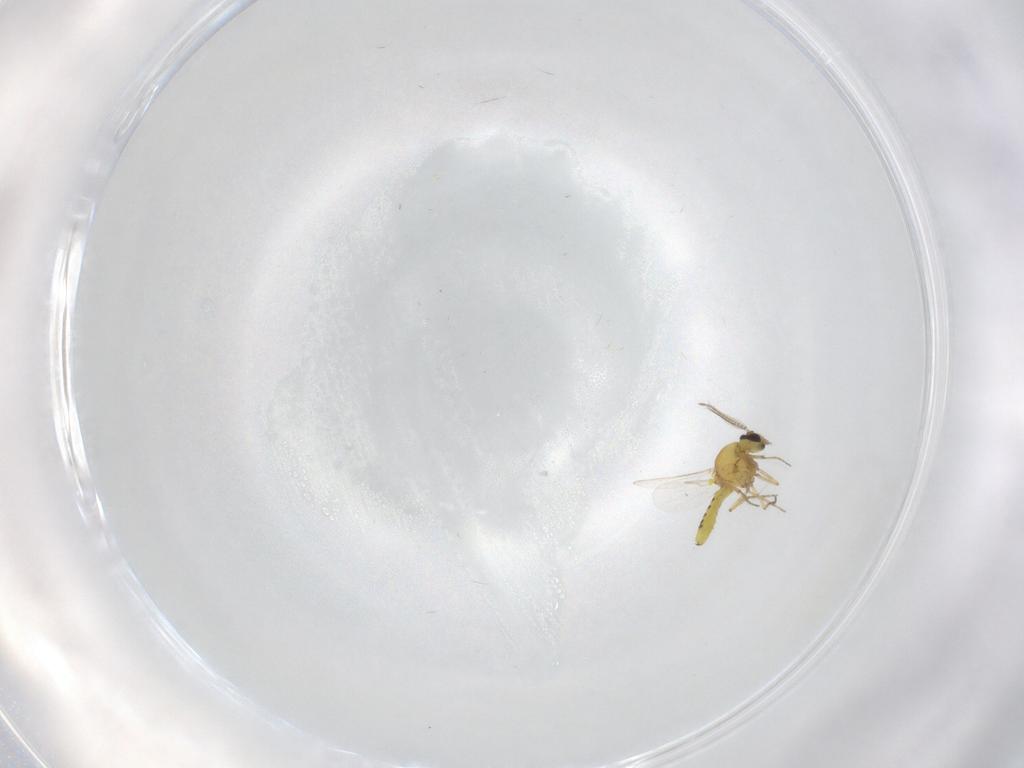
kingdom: Animalia
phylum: Arthropoda
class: Insecta
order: Diptera
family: Ceratopogonidae
